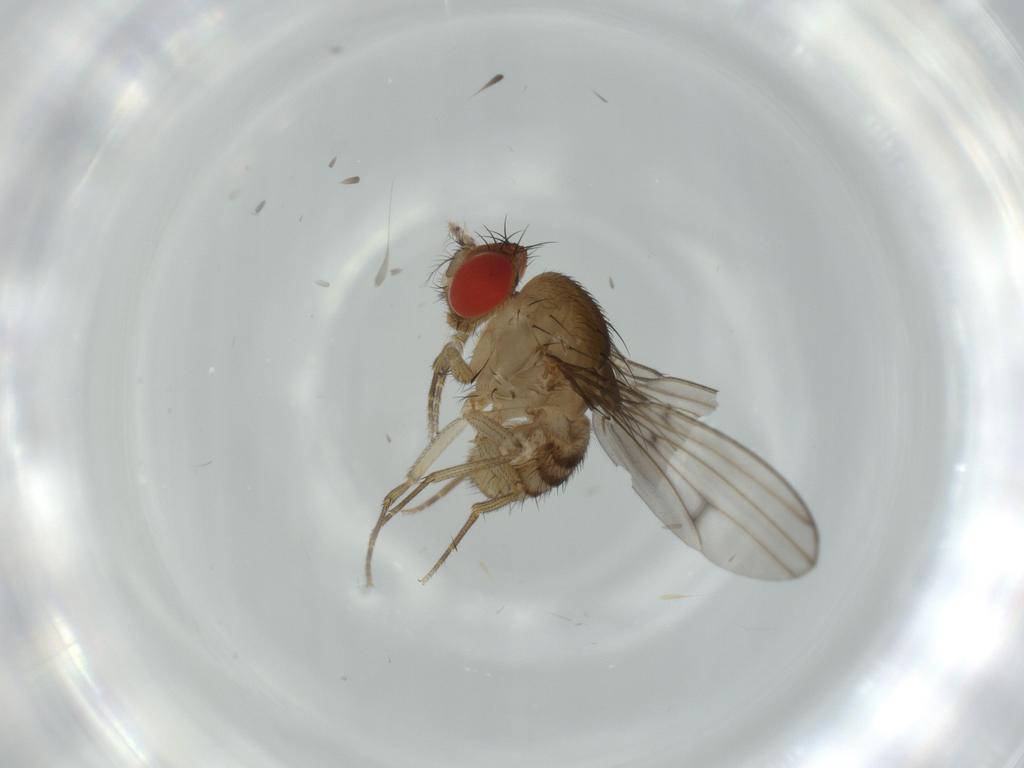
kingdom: Animalia
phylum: Arthropoda
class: Insecta
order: Diptera
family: Drosophilidae
